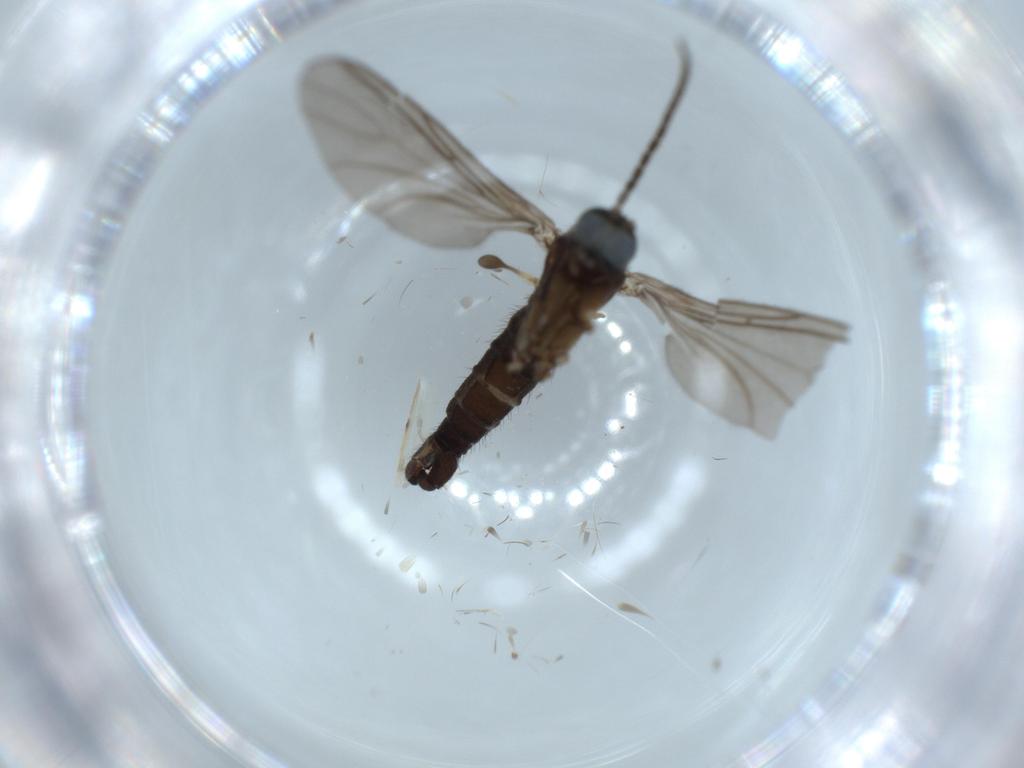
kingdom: Animalia
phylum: Arthropoda
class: Insecta
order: Diptera
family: Sciaridae
